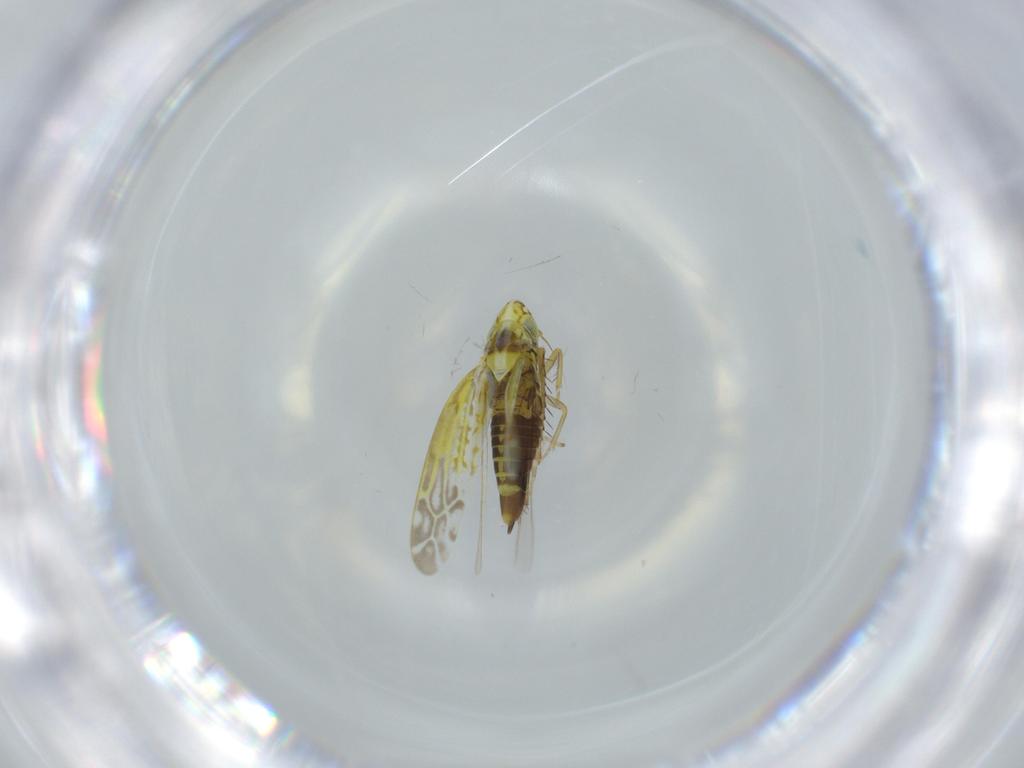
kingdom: Animalia
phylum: Arthropoda
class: Insecta
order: Hemiptera
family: Cicadellidae
